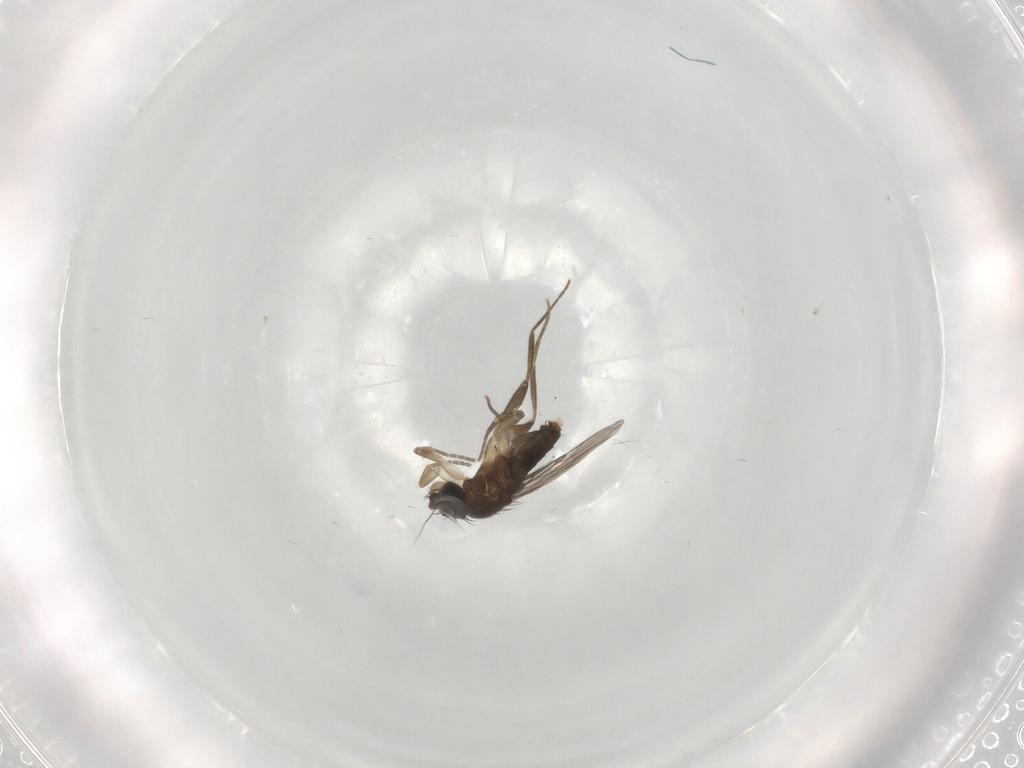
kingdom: Animalia
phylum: Arthropoda
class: Insecta
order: Diptera
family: Phoridae
